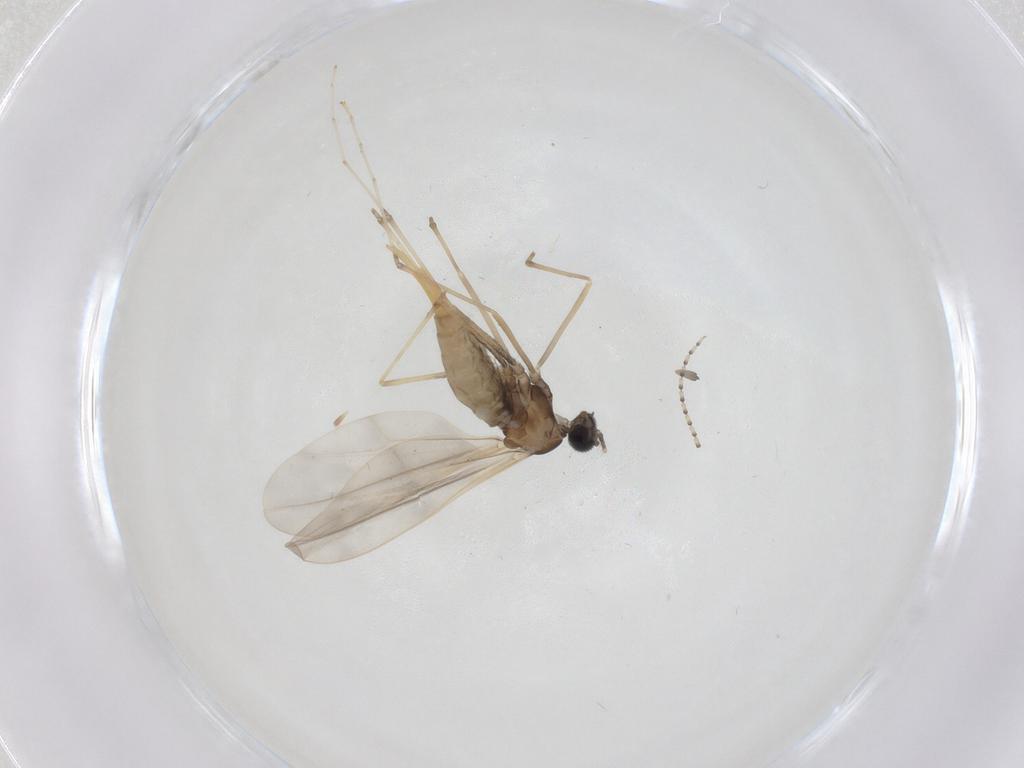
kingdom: Animalia
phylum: Arthropoda
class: Insecta
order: Diptera
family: Cecidomyiidae
